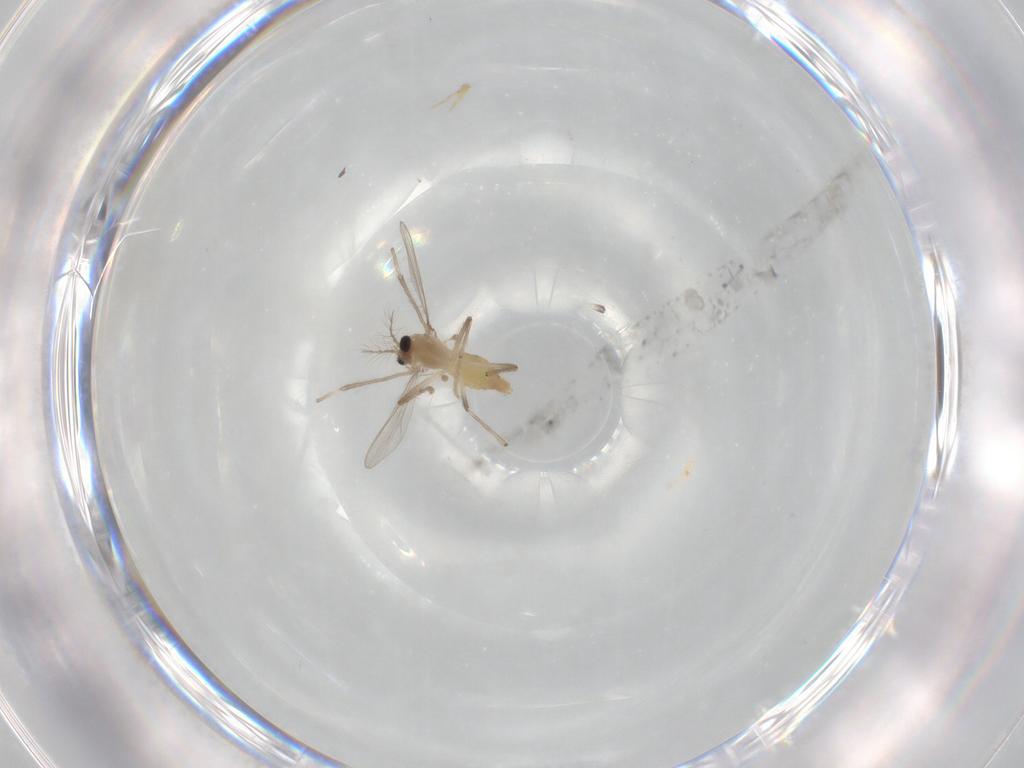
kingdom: Animalia
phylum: Arthropoda
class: Insecta
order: Diptera
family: Chironomidae
